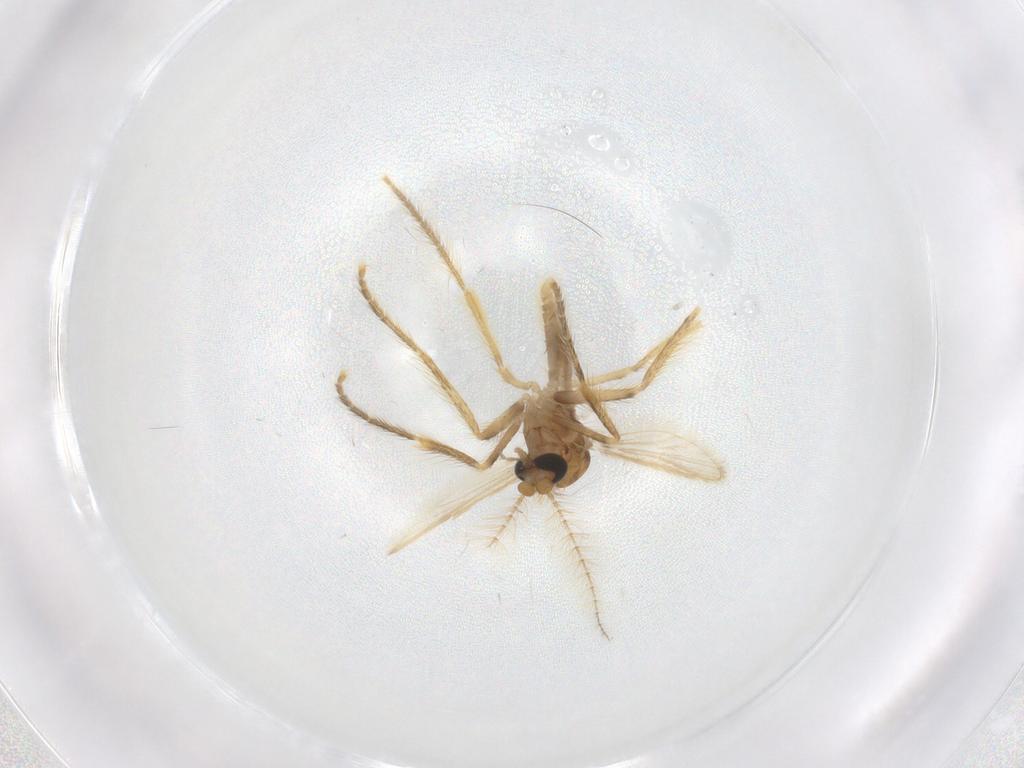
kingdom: Animalia
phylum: Arthropoda
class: Insecta
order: Diptera
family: Corethrellidae
